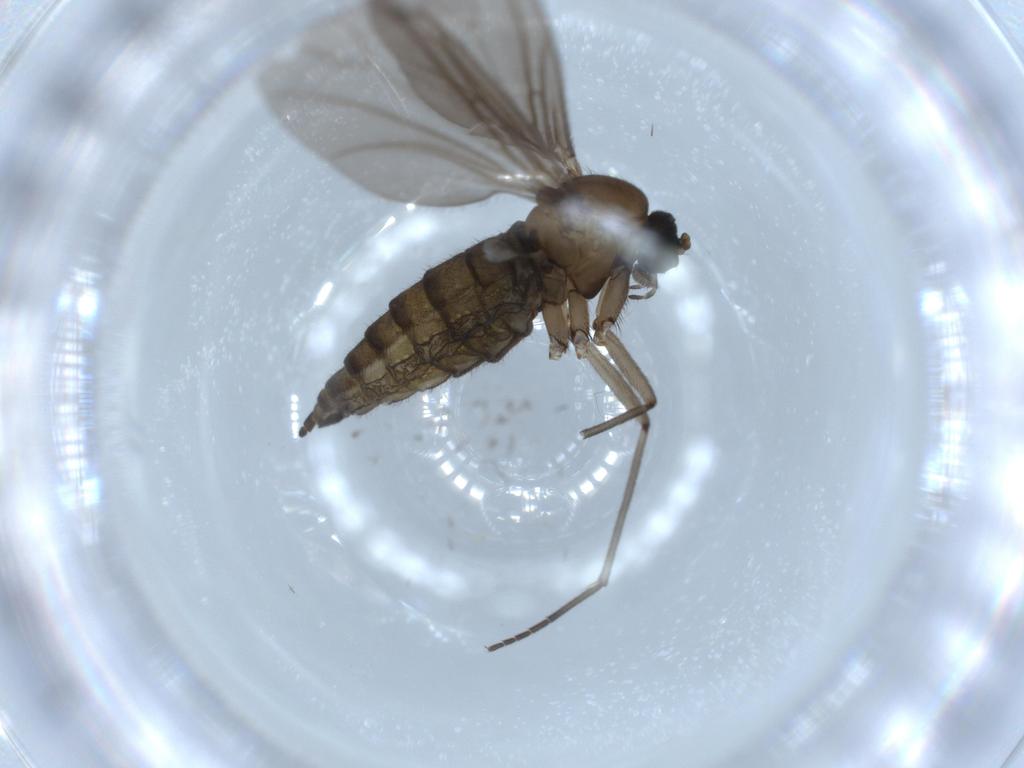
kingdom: Animalia
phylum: Arthropoda
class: Insecta
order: Diptera
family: Sciaridae
